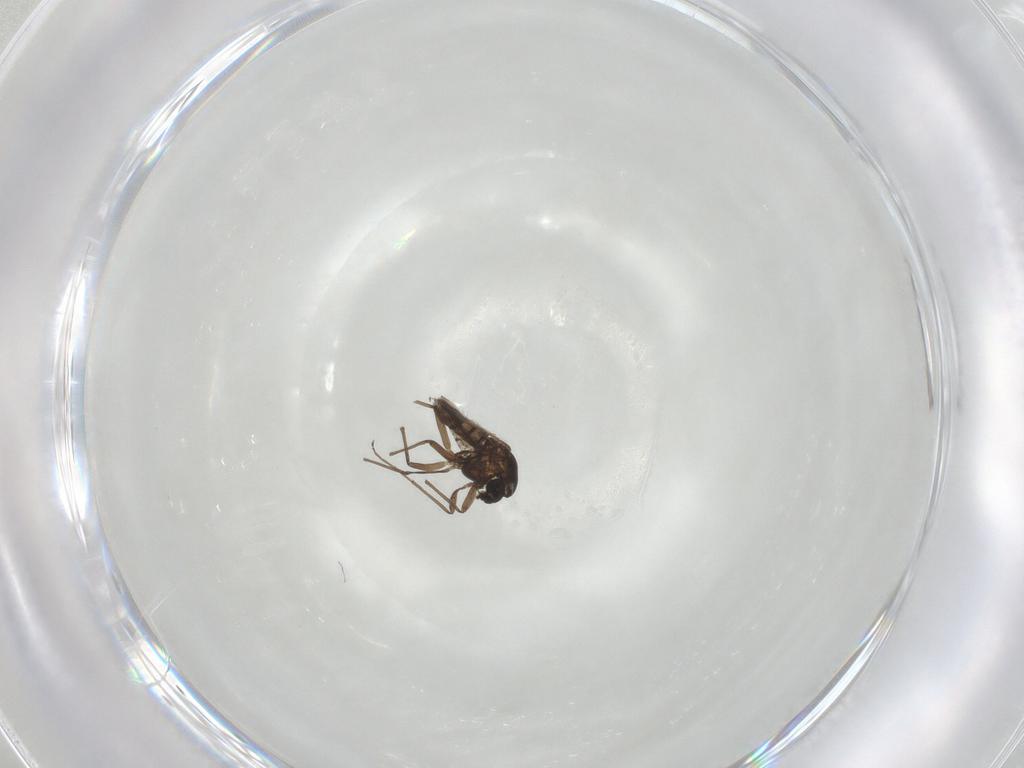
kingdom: Animalia
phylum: Arthropoda
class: Insecta
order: Diptera
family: Chironomidae
